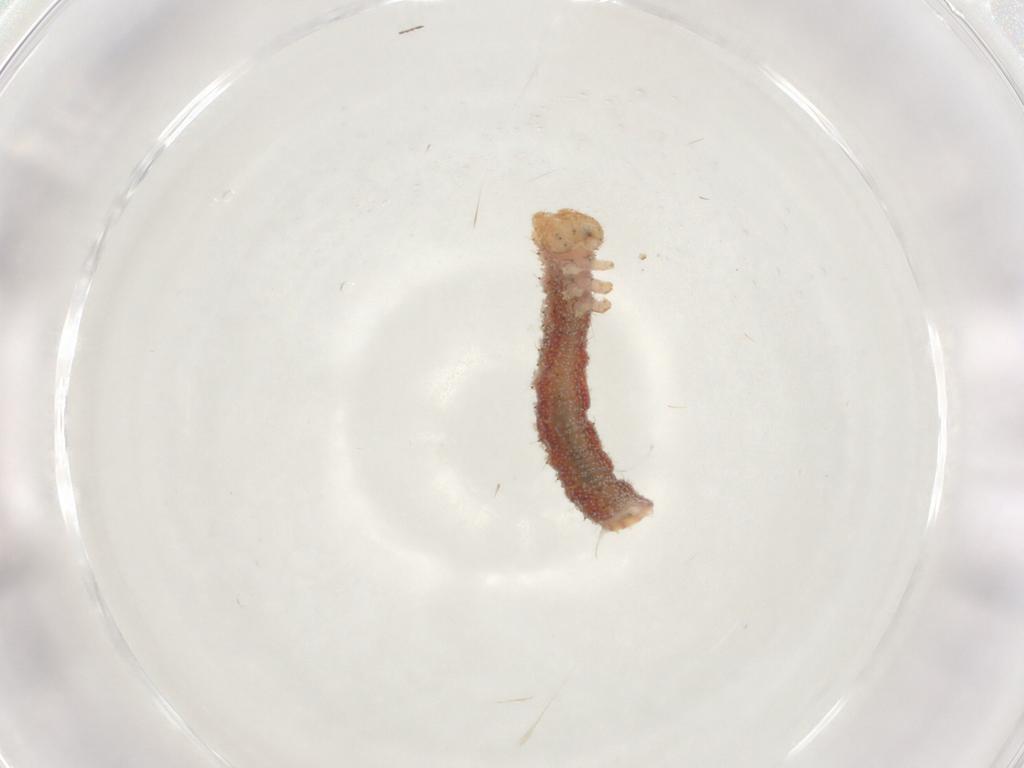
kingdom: Animalia
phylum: Arthropoda
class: Insecta
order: Lepidoptera
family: Geometridae
